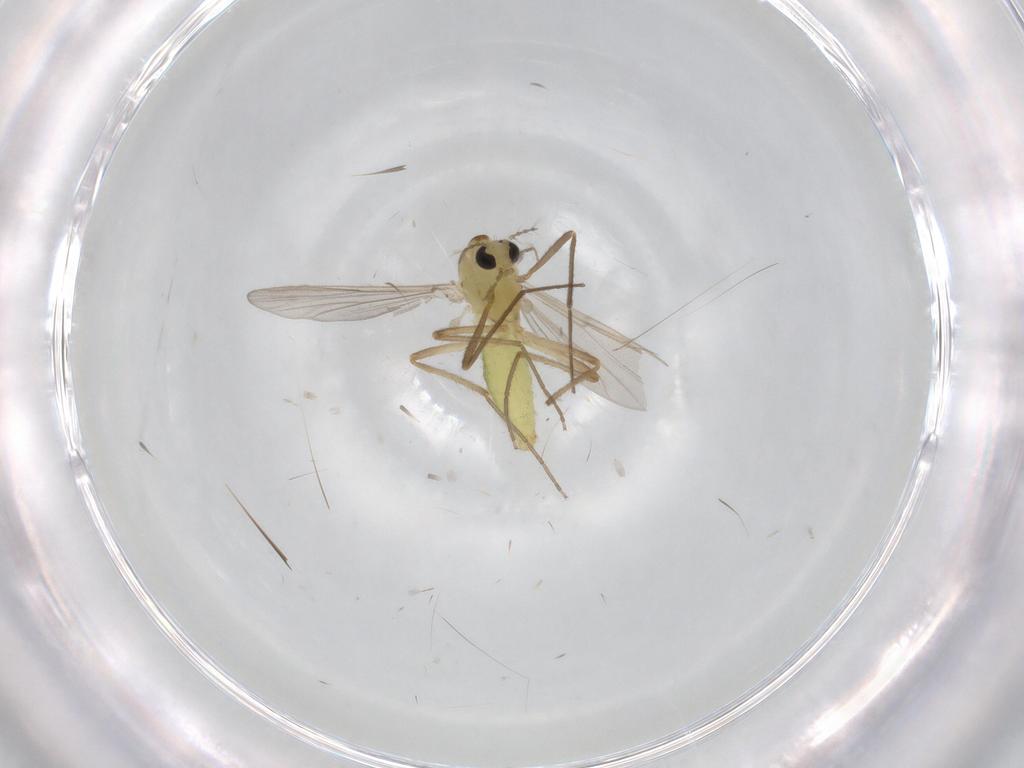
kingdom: Animalia
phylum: Arthropoda
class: Insecta
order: Diptera
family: Chironomidae
